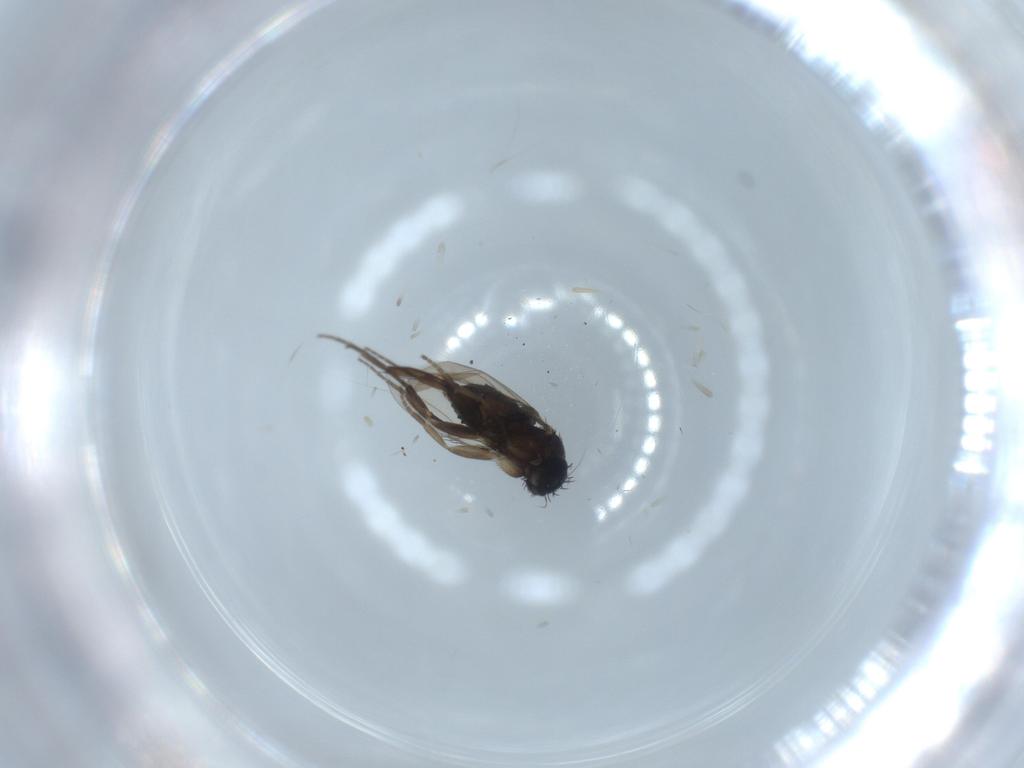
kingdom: Animalia
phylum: Arthropoda
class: Insecta
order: Diptera
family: Phoridae
